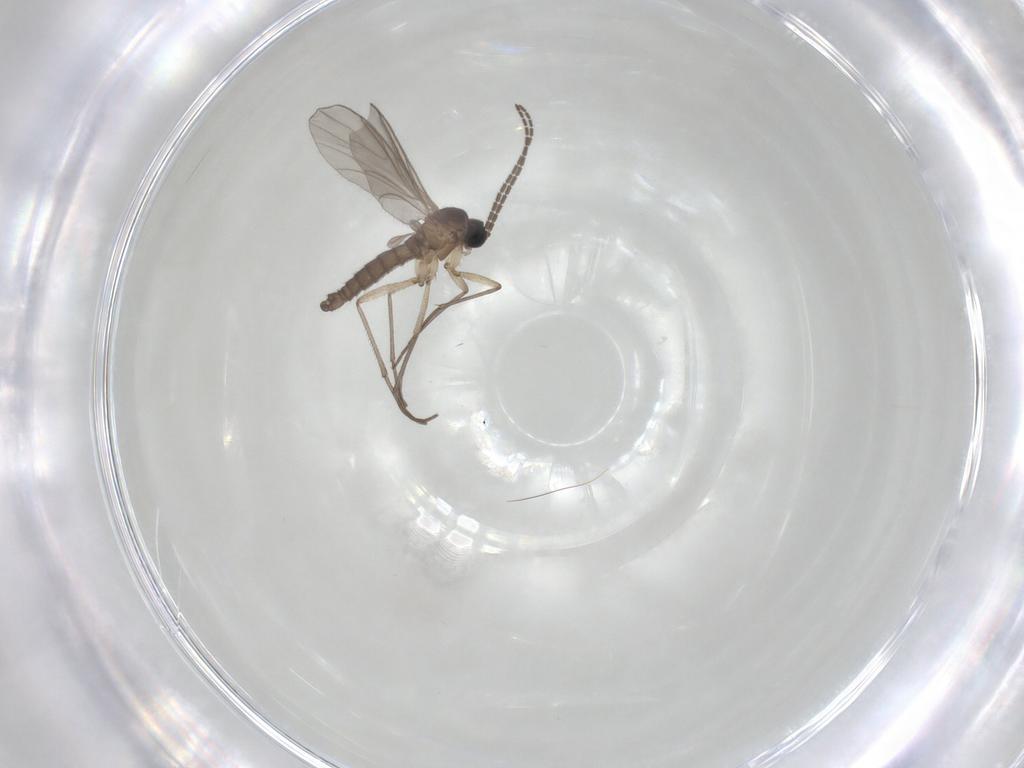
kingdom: Animalia
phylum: Arthropoda
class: Insecta
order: Diptera
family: Sciaridae
